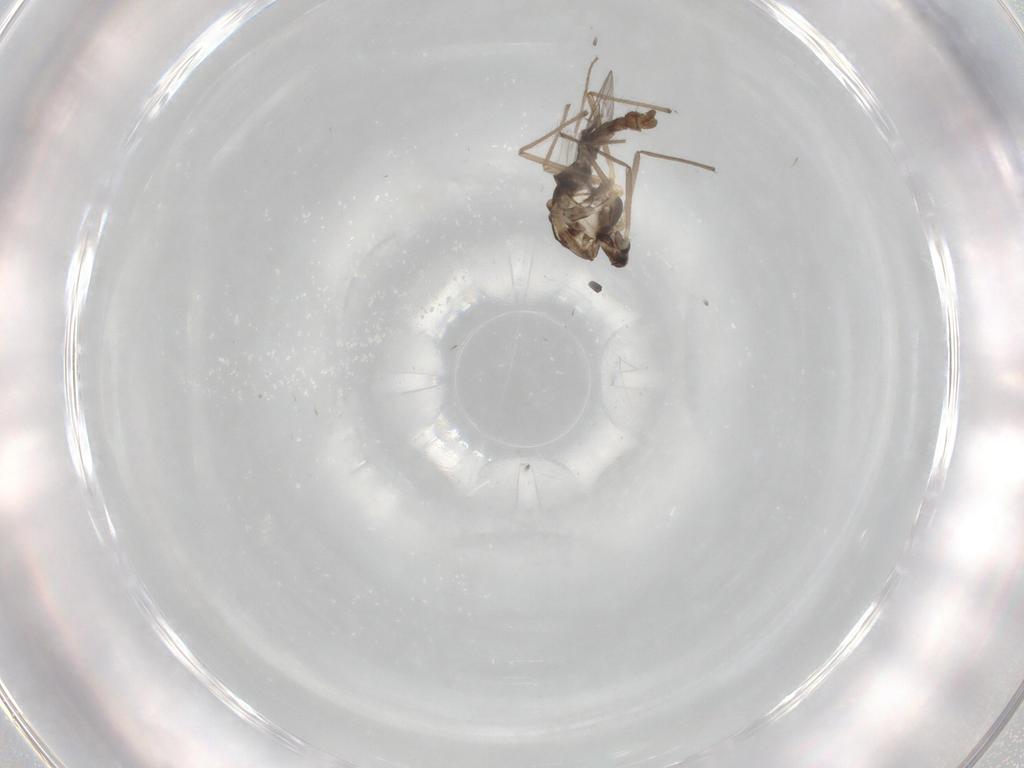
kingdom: Animalia
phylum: Arthropoda
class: Insecta
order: Diptera
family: Chironomidae
